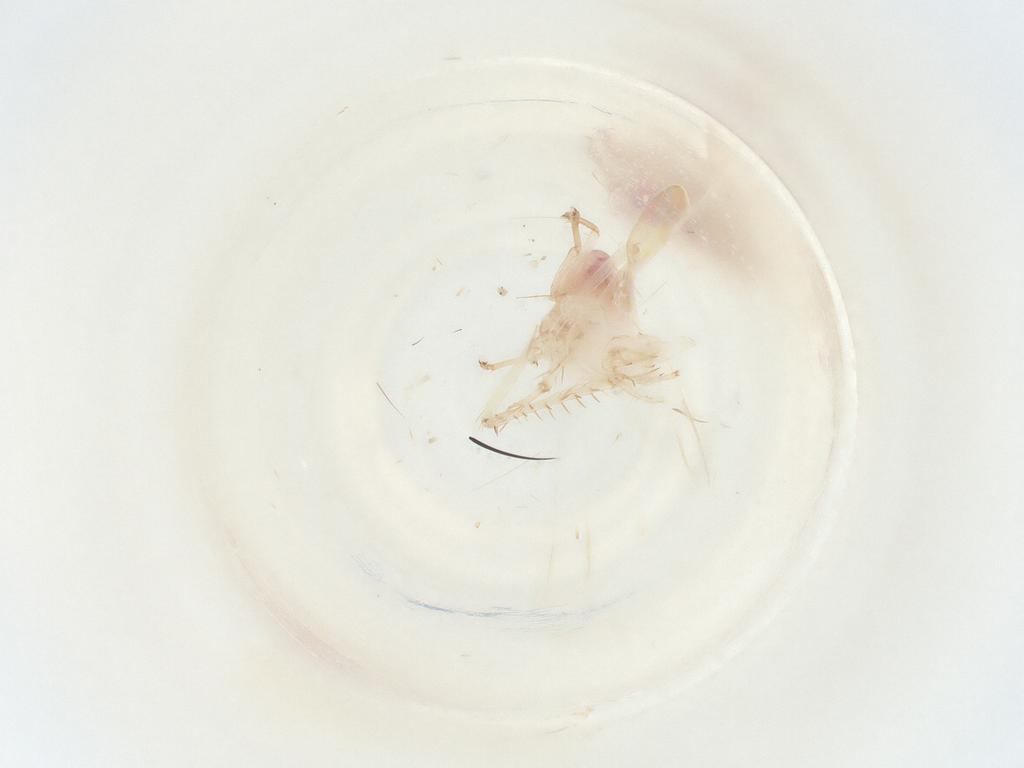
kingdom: Animalia
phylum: Arthropoda
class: Insecta
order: Hemiptera
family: Cicadellidae
